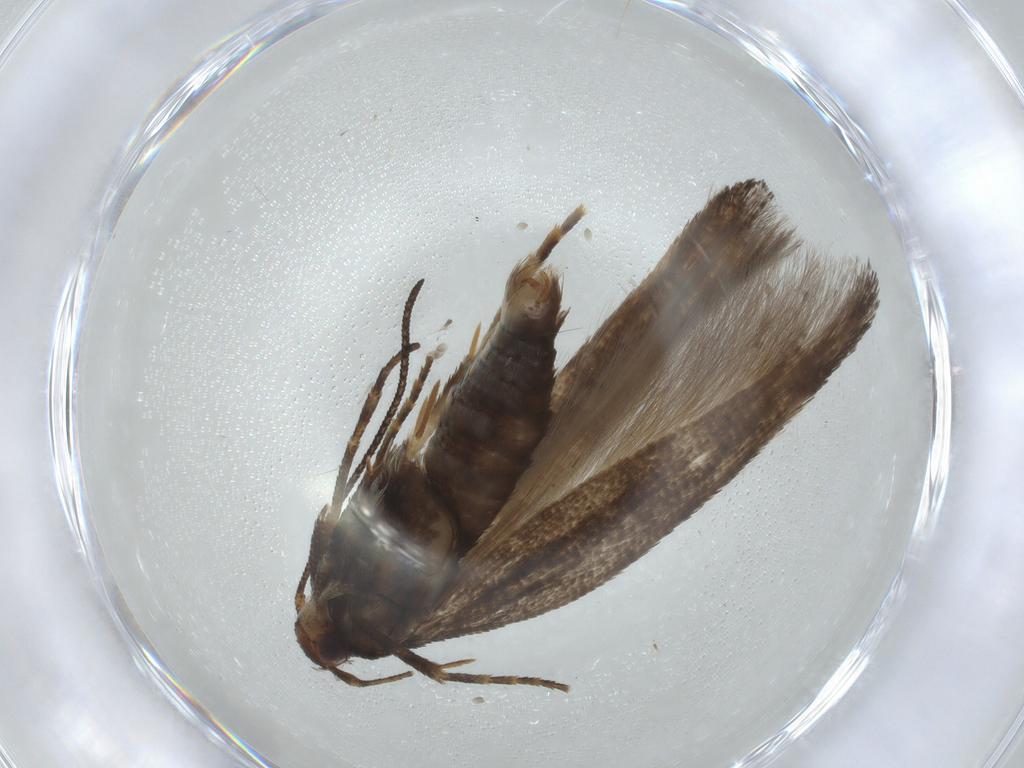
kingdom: Animalia
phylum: Arthropoda
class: Insecta
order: Lepidoptera
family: Momphidae
